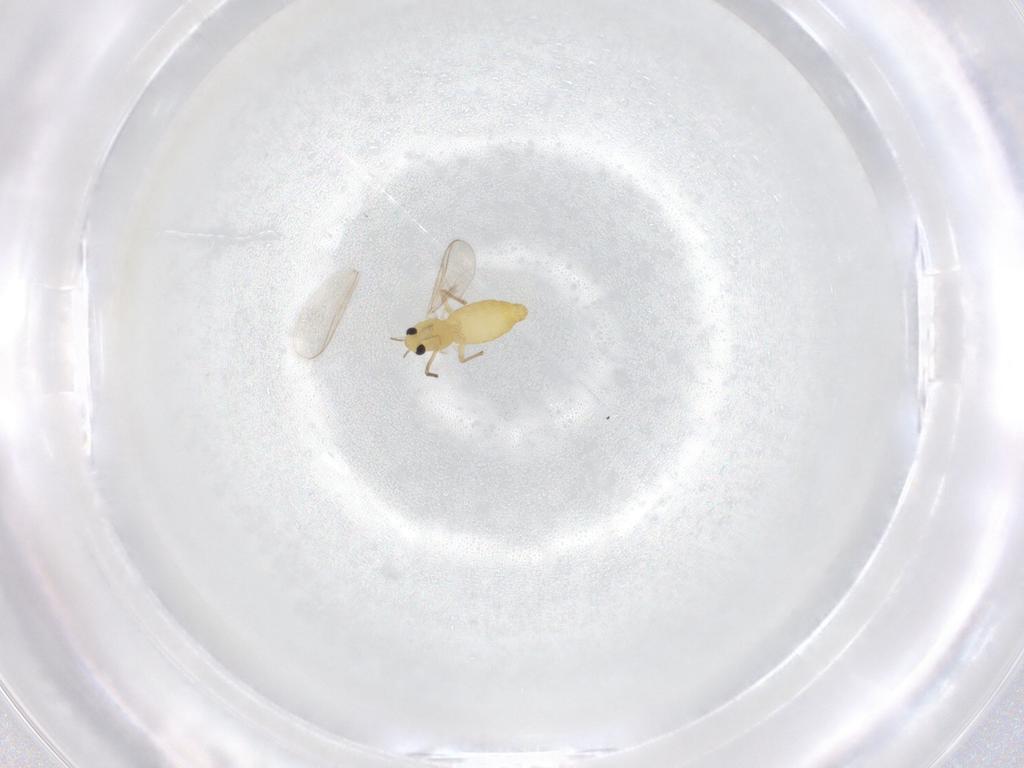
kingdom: Animalia
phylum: Arthropoda
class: Insecta
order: Diptera
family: Chironomidae
